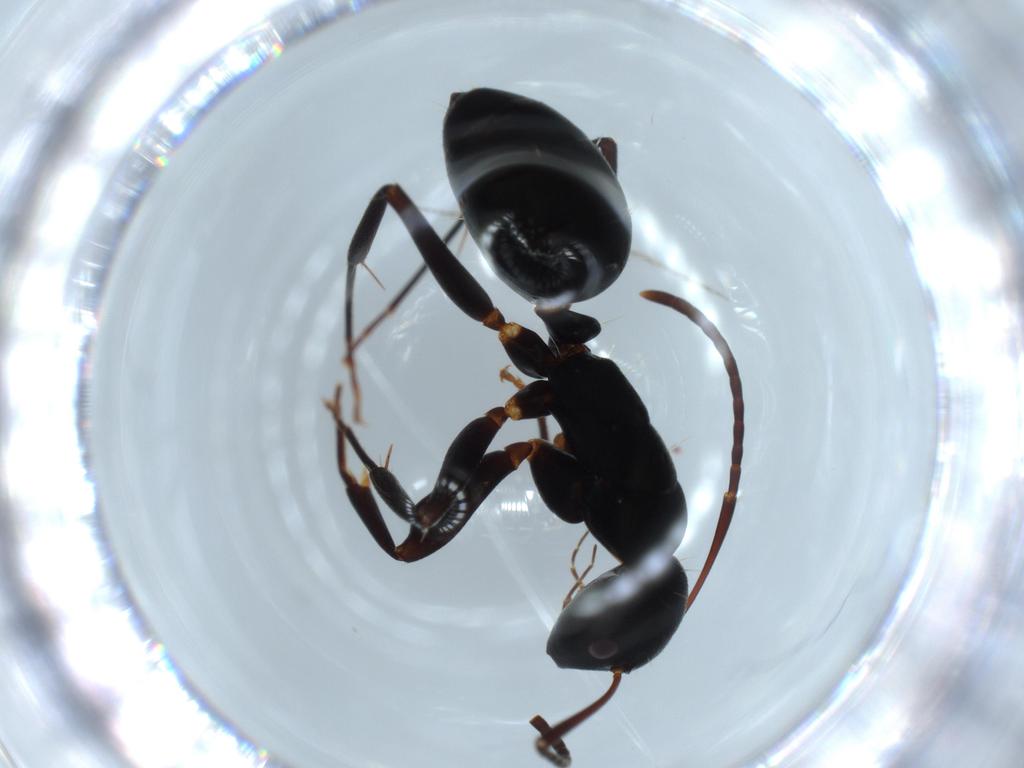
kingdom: Animalia
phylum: Arthropoda
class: Insecta
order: Hymenoptera
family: Formicidae
